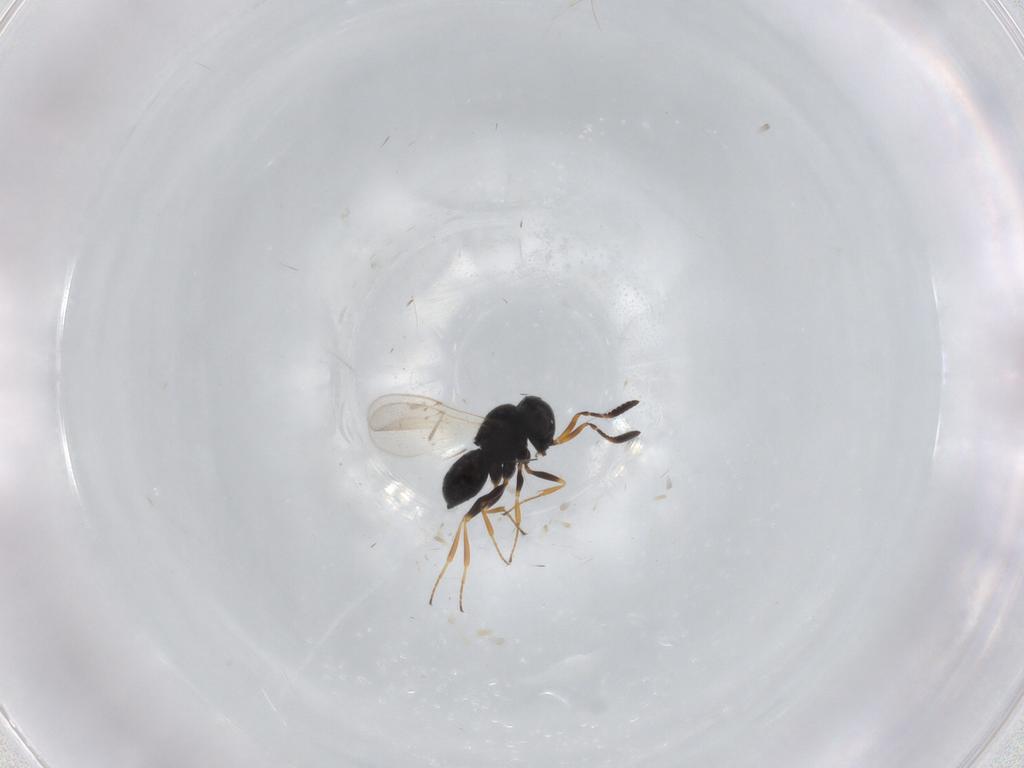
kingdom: Animalia
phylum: Arthropoda
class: Insecta
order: Coleoptera
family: Curculionidae
